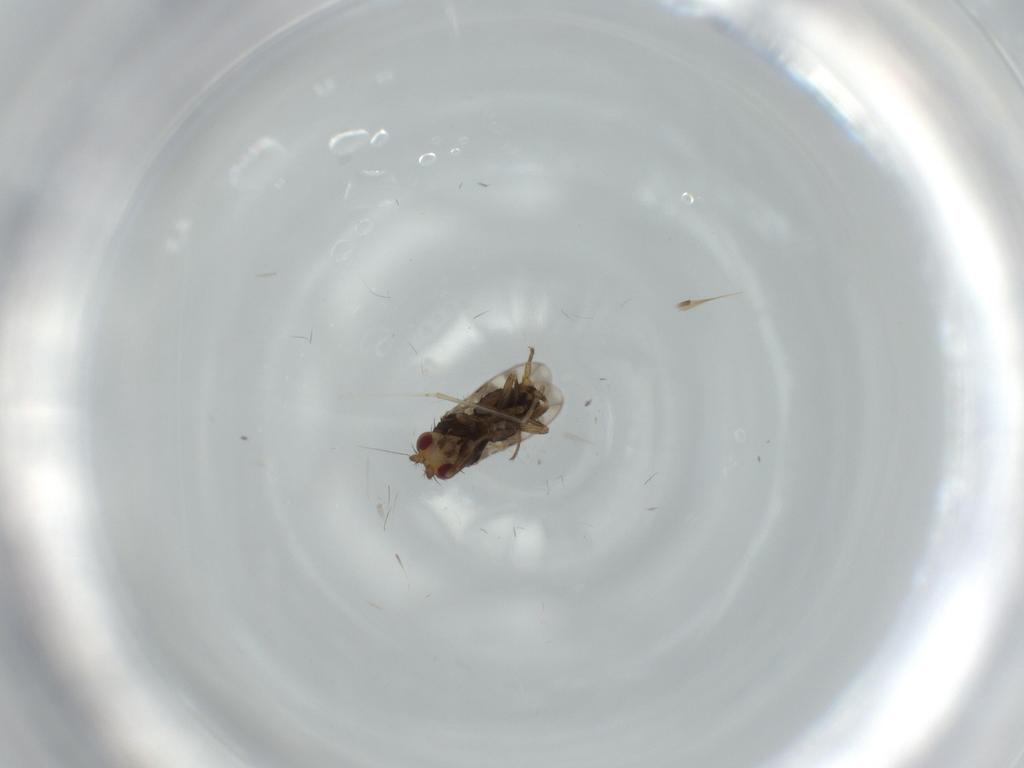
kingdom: Animalia
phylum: Arthropoda
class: Insecta
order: Diptera
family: Sphaeroceridae
